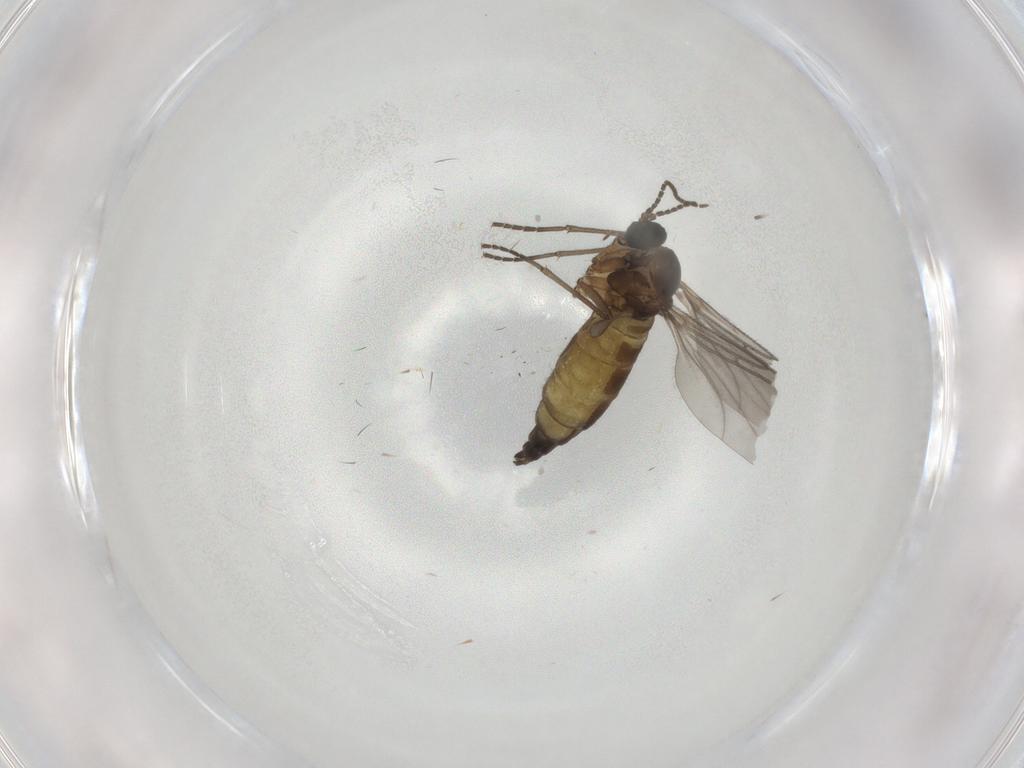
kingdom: Animalia
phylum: Arthropoda
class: Insecta
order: Diptera
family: Sciaridae
